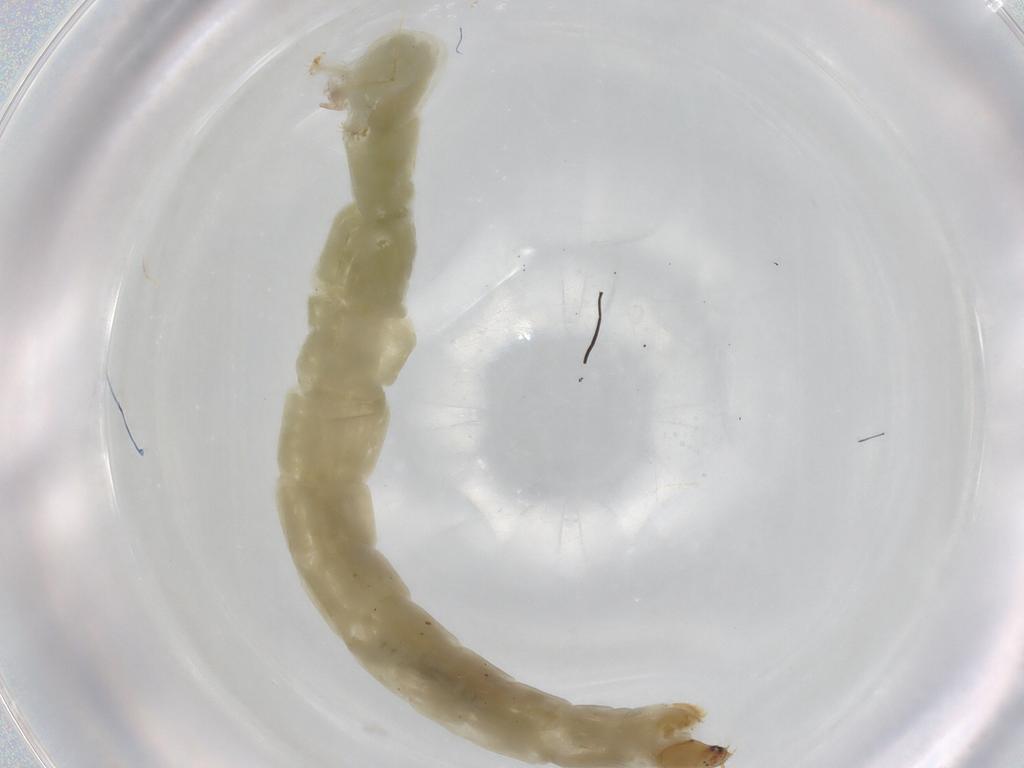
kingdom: Animalia
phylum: Arthropoda
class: Insecta
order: Diptera
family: Chironomidae
